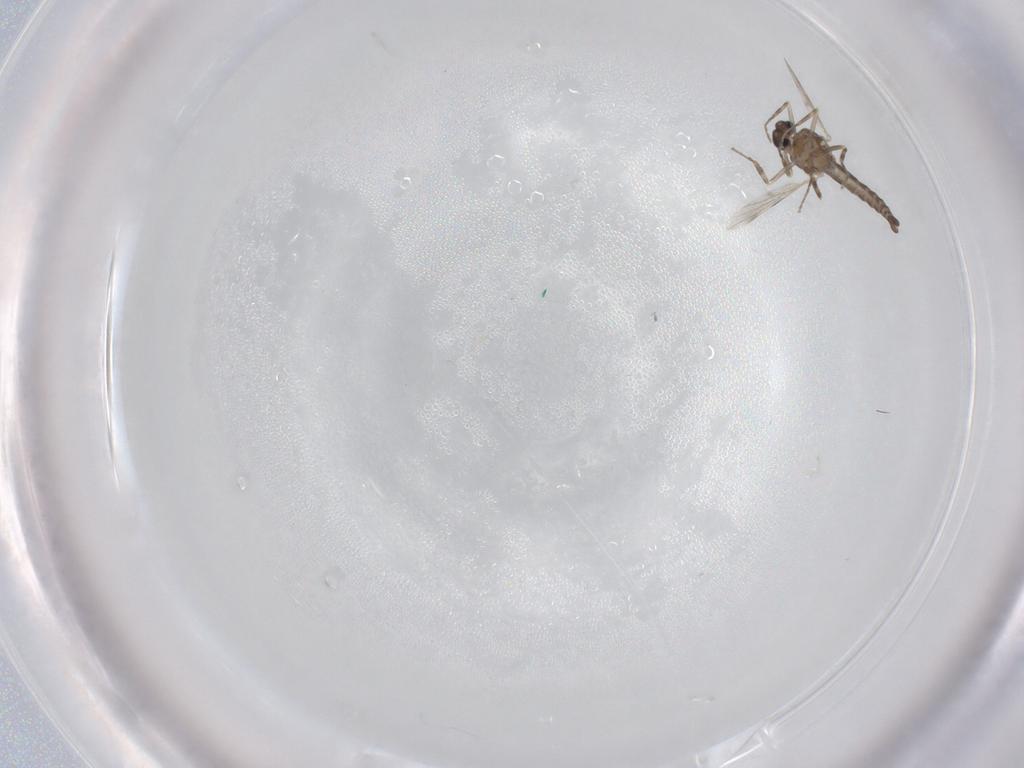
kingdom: Animalia
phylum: Arthropoda
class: Insecta
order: Diptera
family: Ceratopogonidae
